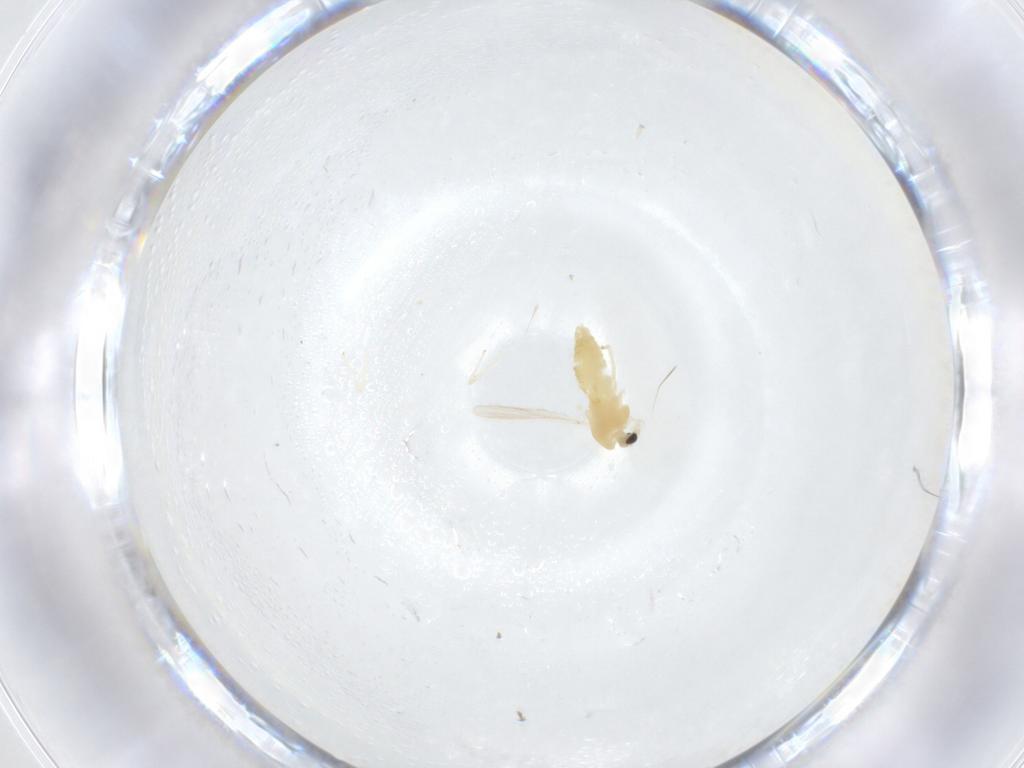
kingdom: Animalia
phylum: Arthropoda
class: Insecta
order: Diptera
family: Chironomidae
